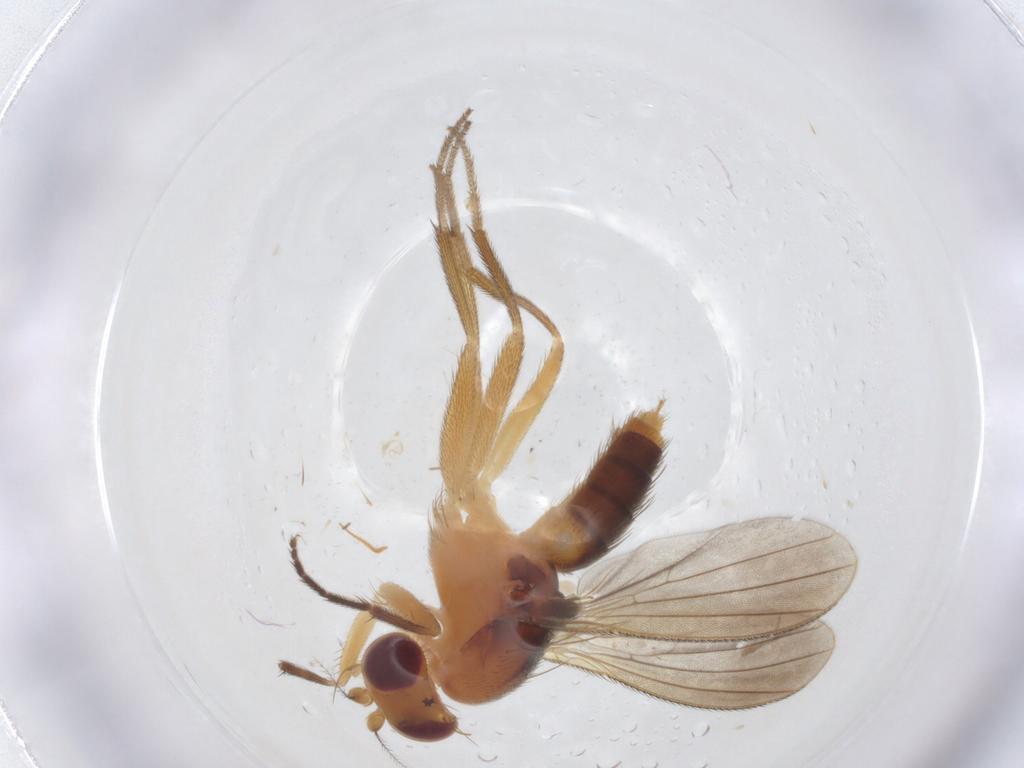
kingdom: Animalia
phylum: Arthropoda
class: Insecta
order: Diptera
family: Clusiidae
